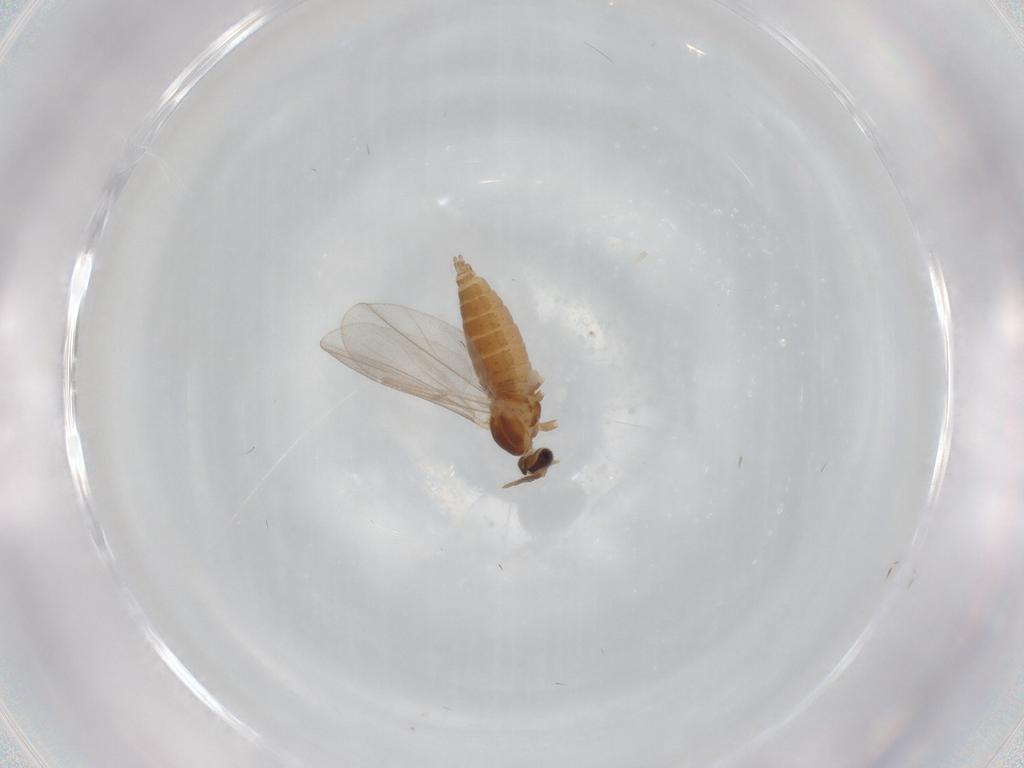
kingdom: Animalia
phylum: Arthropoda
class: Insecta
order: Diptera
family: Cecidomyiidae
